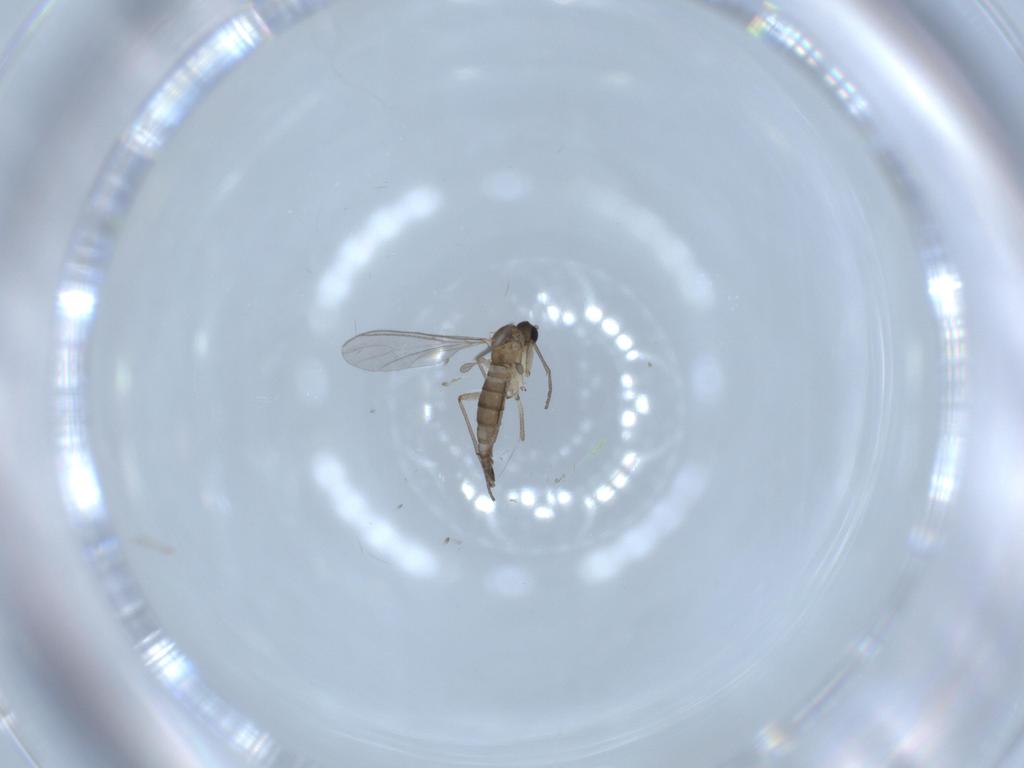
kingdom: Animalia
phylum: Arthropoda
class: Insecta
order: Diptera
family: Sciaridae
